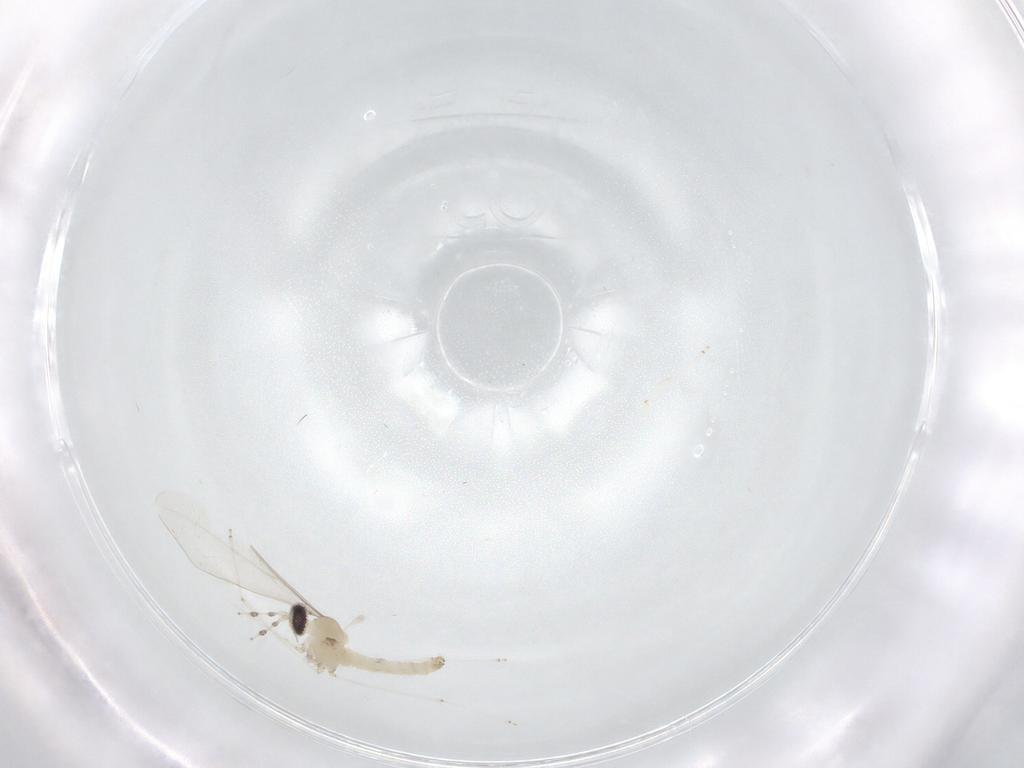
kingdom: Animalia
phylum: Arthropoda
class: Insecta
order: Diptera
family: Cecidomyiidae
